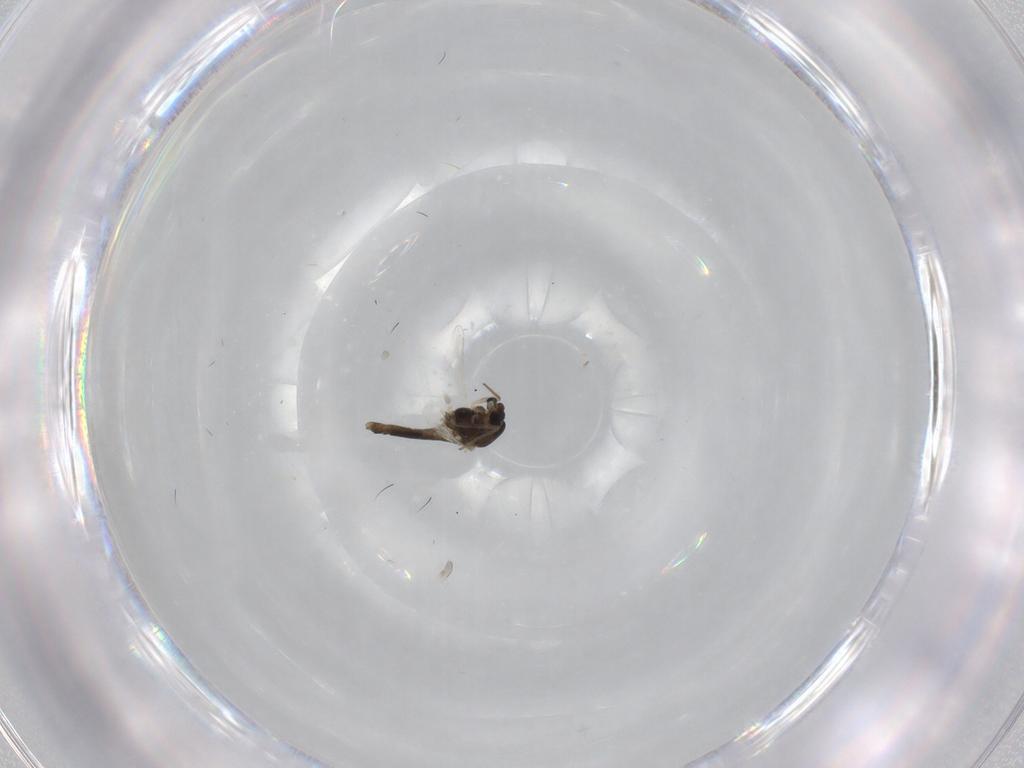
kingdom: Animalia
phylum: Arthropoda
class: Insecta
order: Diptera
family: Chironomidae
